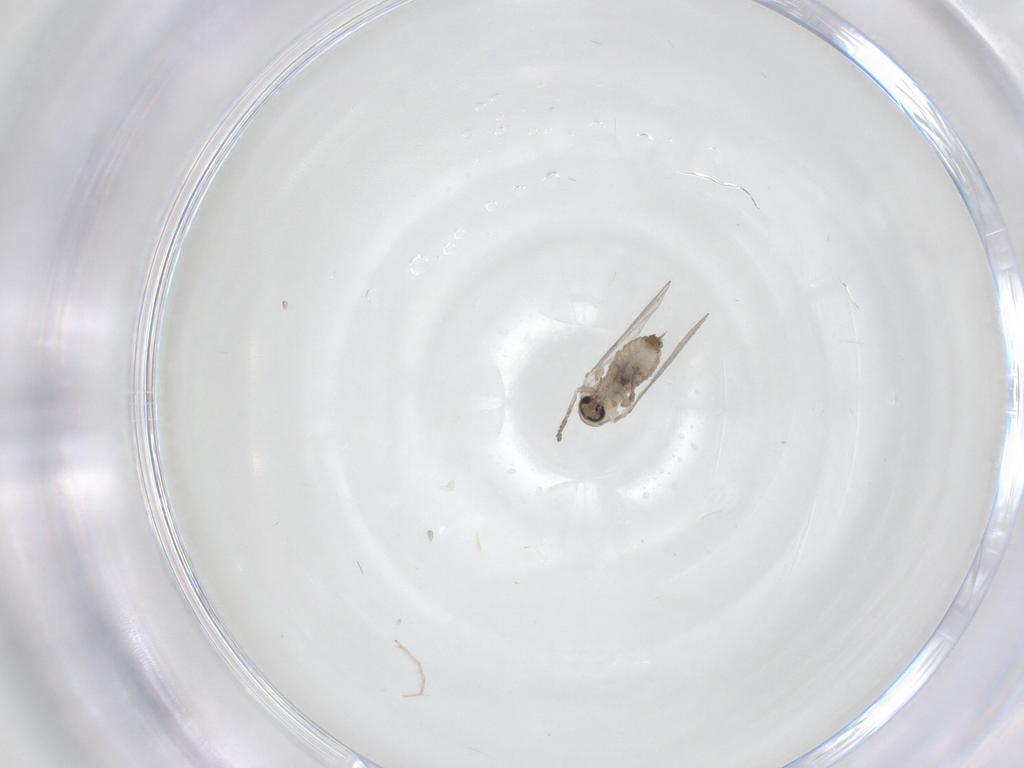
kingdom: Animalia
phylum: Arthropoda
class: Insecta
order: Diptera
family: Psychodidae
